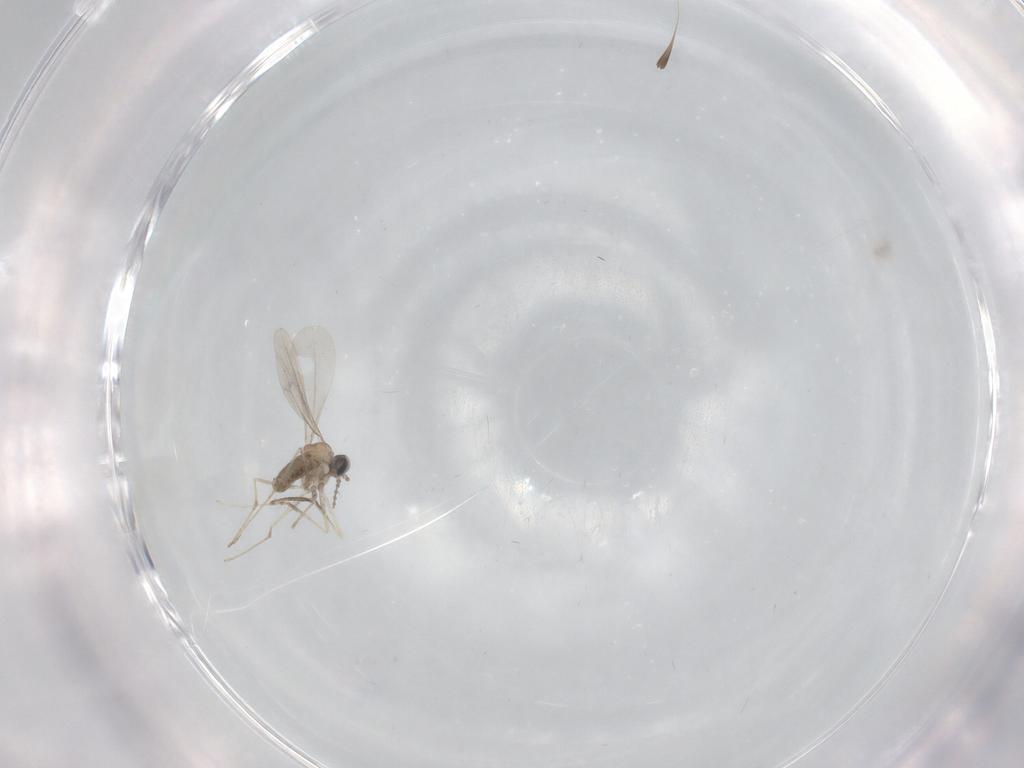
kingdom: Animalia
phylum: Arthropoda
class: Insecta
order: Diptera
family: Cecidomyiidae
